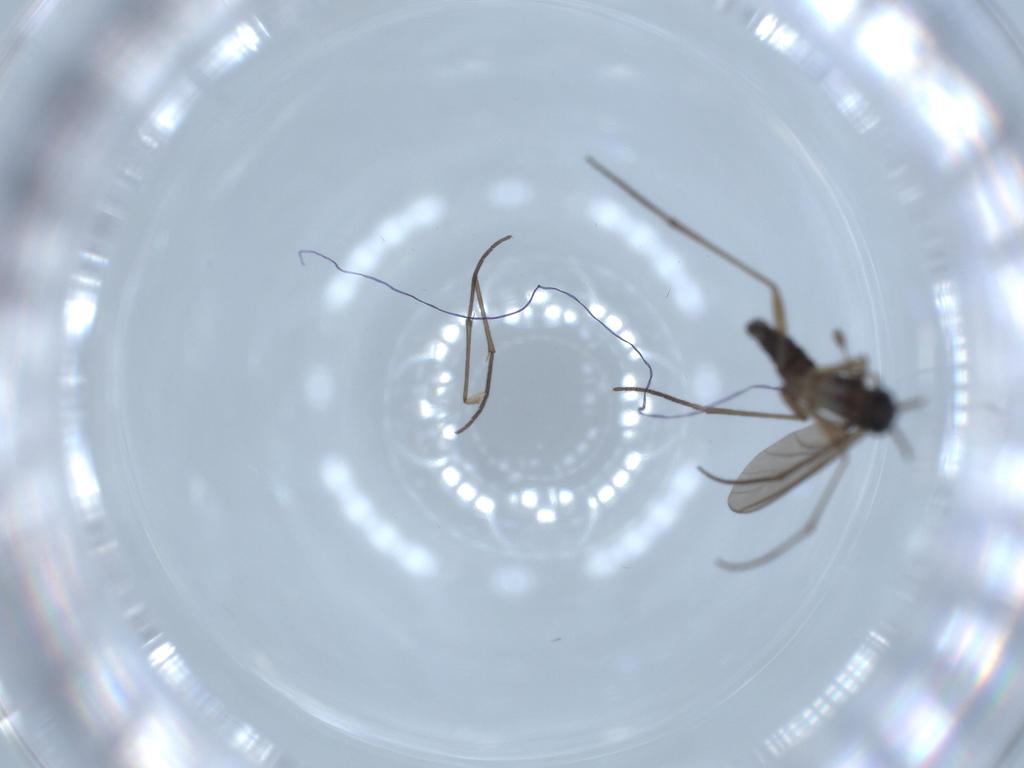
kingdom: Animalia
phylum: Arthropoda
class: Insecta
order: Diptera
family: Sciaridae
